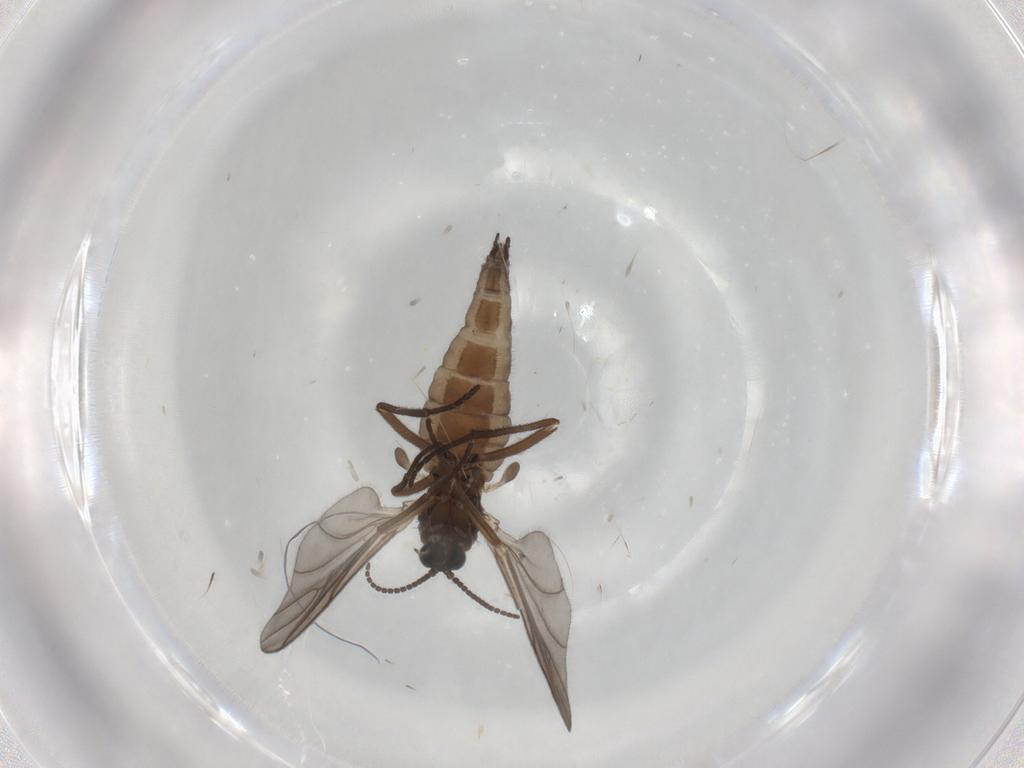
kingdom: Animalia
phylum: Arthropoda
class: Insecta
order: Diptera
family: Sciaridae
